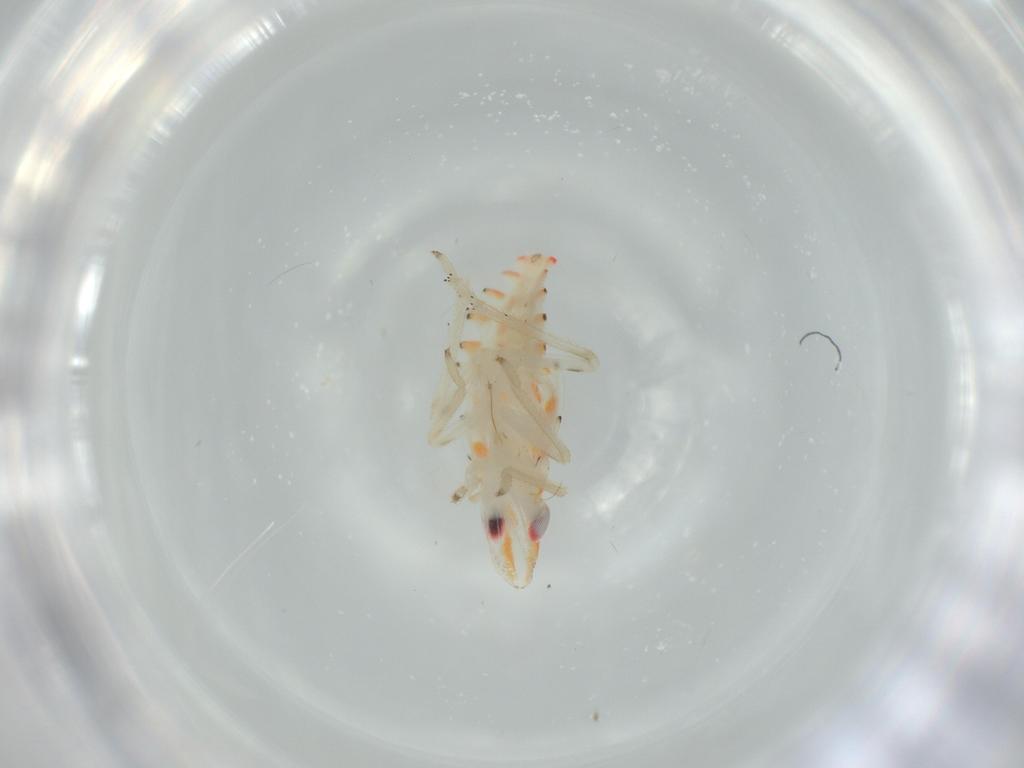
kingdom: Animalia
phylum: Arthropoda
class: Insecta
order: Hemiptera
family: Tropiduchidae
